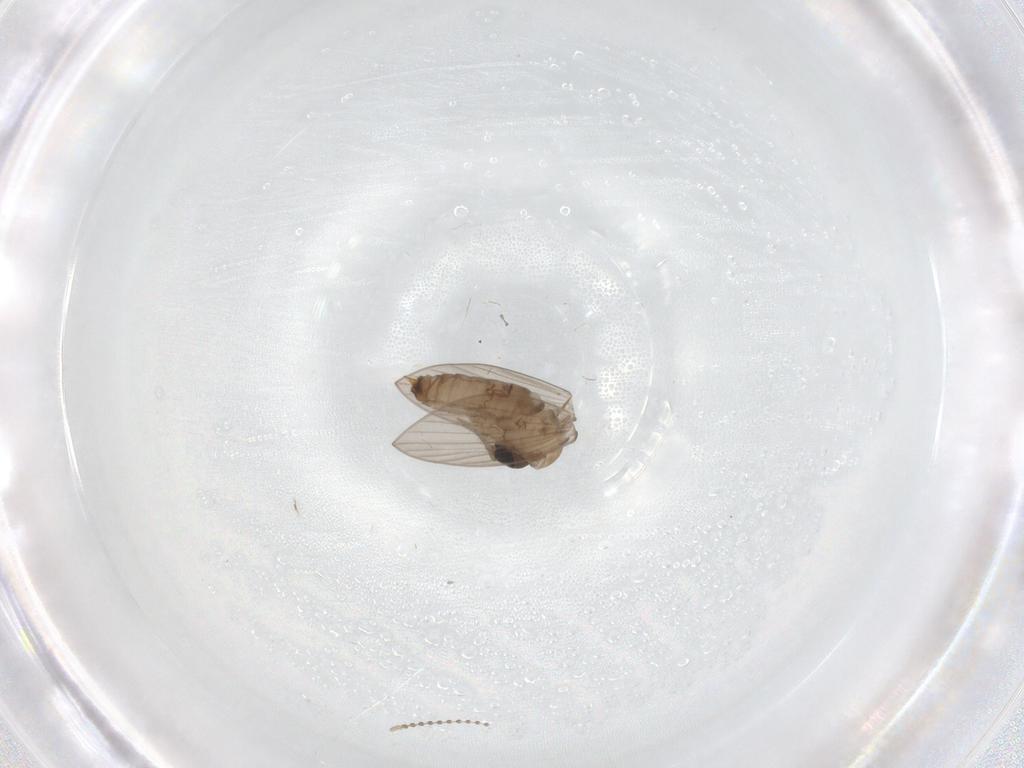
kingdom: Animalia
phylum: Arthropoda
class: Insecta
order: Diptera
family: Psychodidae
